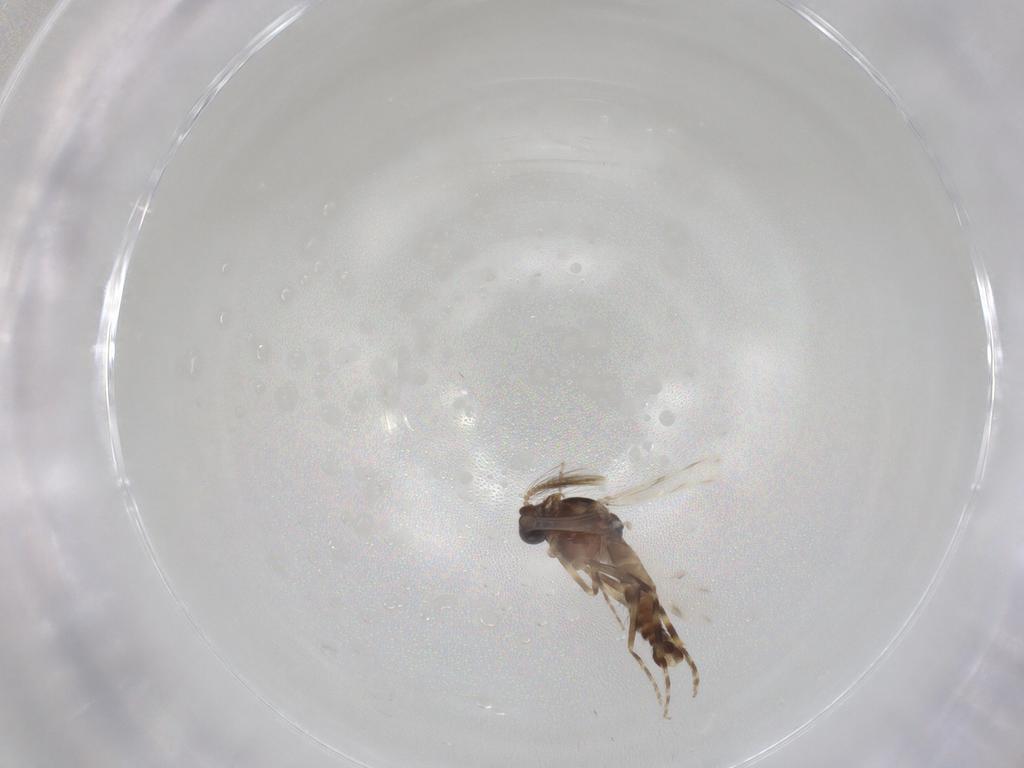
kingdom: Animalia
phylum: Arthropoda
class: Insecta
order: Diptera
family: Ceratopogonidae
